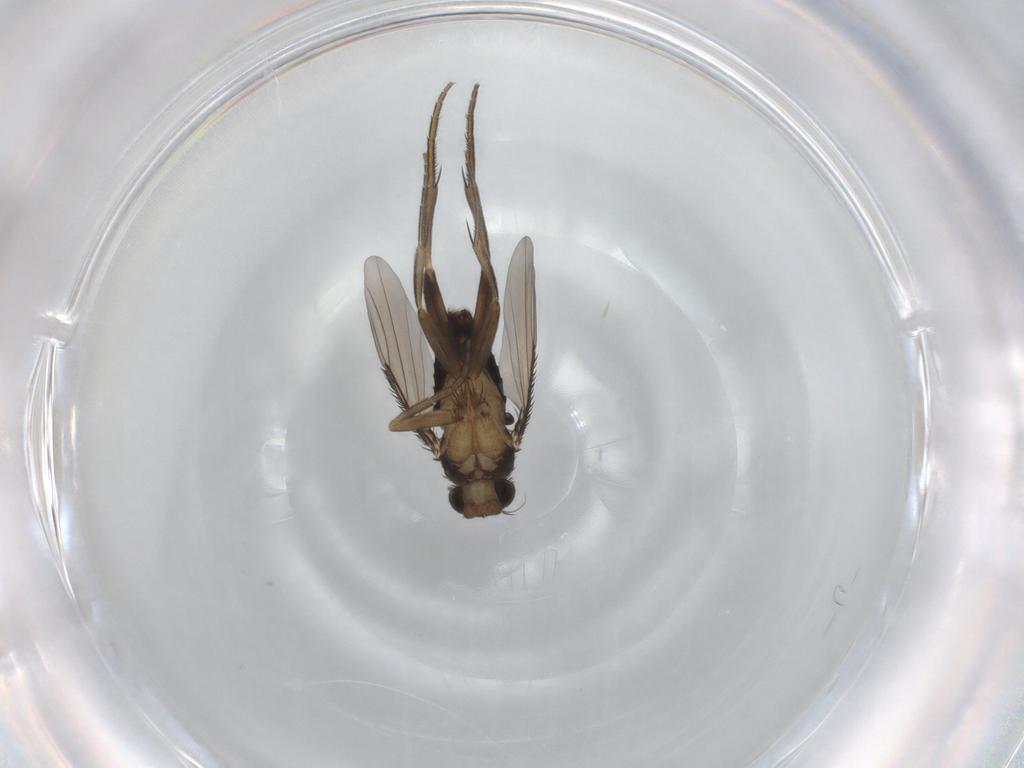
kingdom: Animalia
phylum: Arthropoda
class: Insecta
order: Diptera
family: Phoridae
